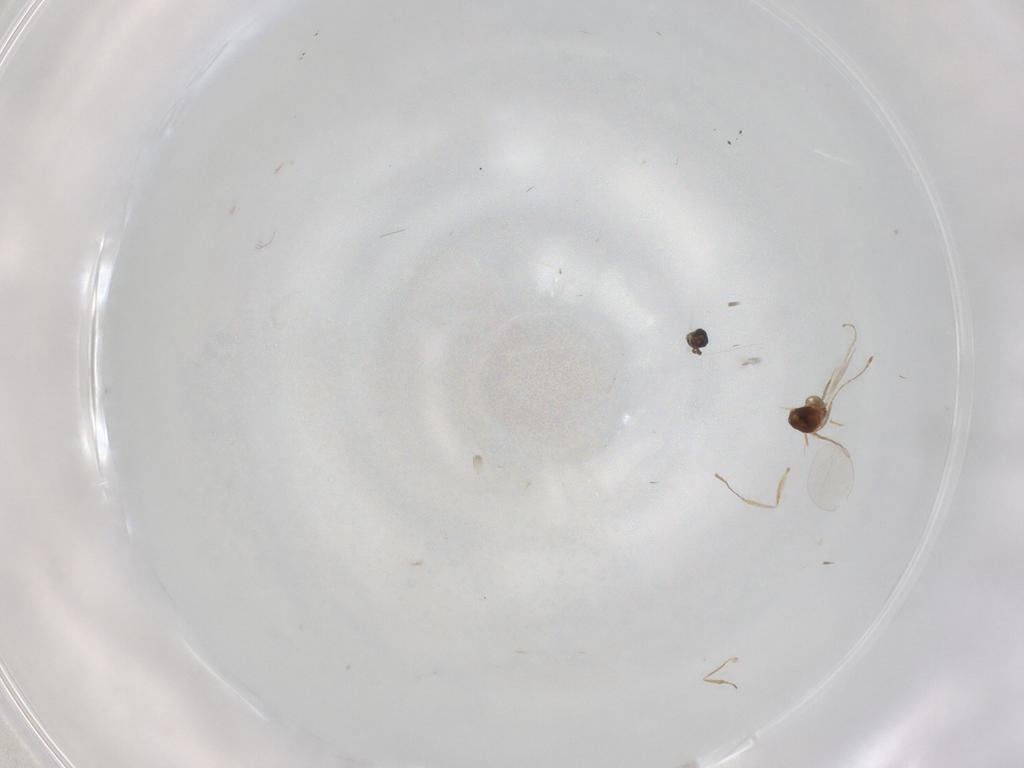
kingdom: Animalia
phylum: Arthropoda
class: Insecta
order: Diptera
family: Cecidomyiidae
